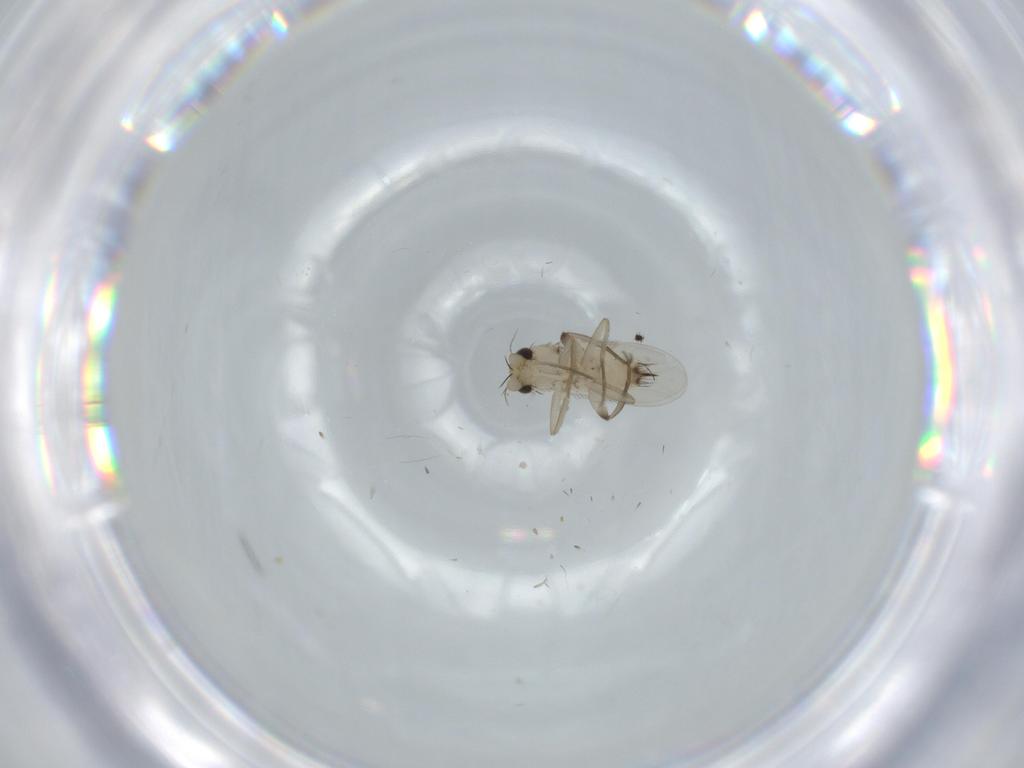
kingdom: Animalia
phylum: Arthropoda
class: Insecta
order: Diptera
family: Phoridae
